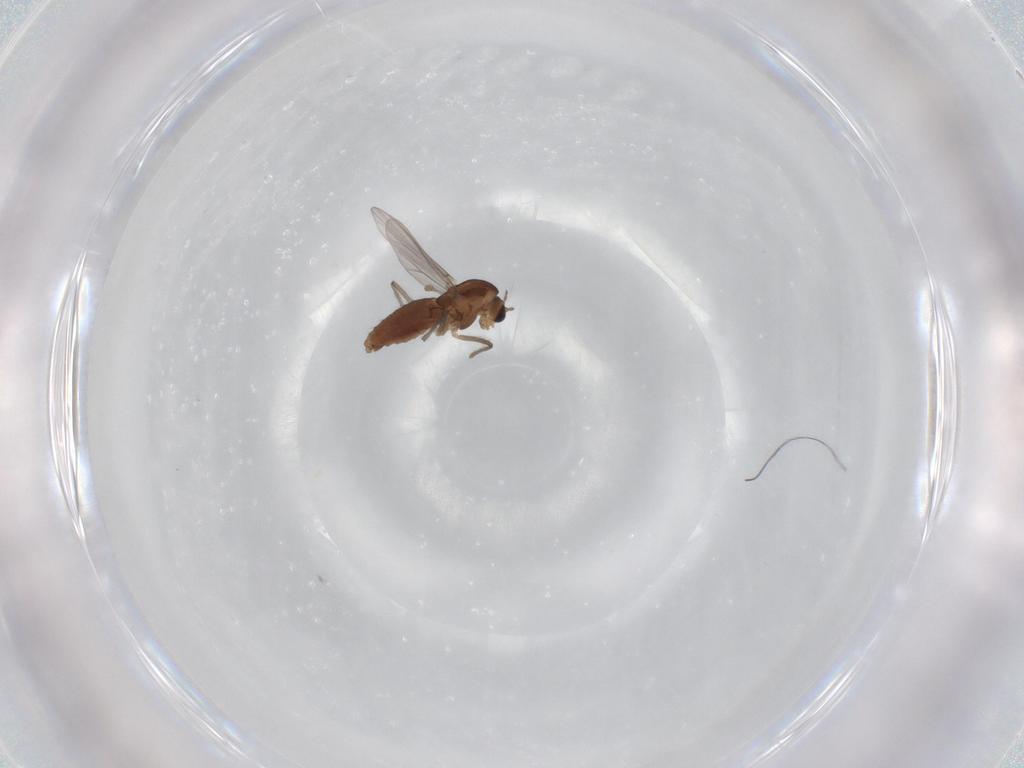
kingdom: Animalia
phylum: Arthropoda
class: Insecta
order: Diptera
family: Chironomidae
